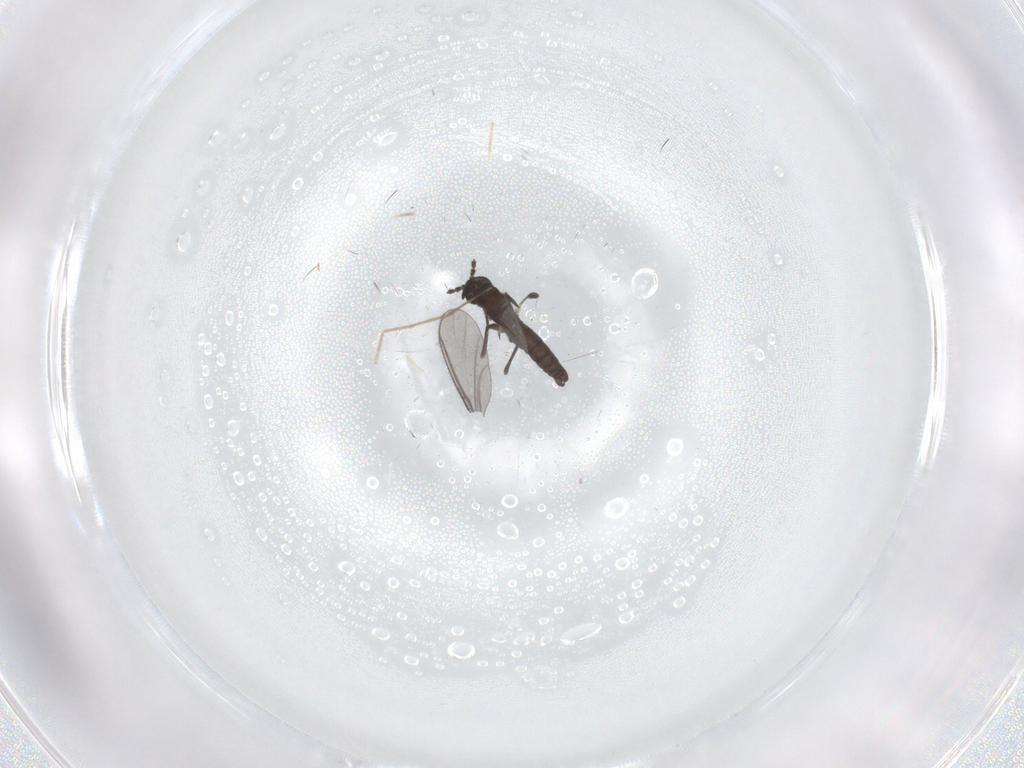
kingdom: Animalia
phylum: Arthropoda
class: Insecta
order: Diptera
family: Chironomidae
